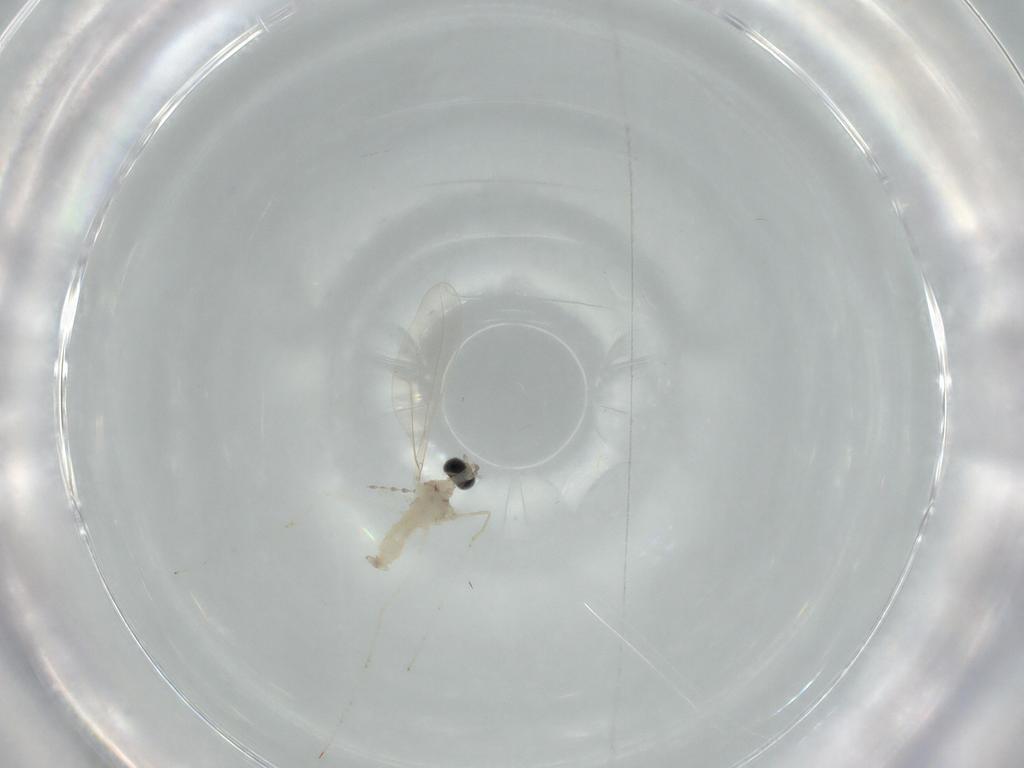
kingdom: Animalia
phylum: Arthropoda
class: Insecta
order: Diptera
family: Cecidomyiidae
